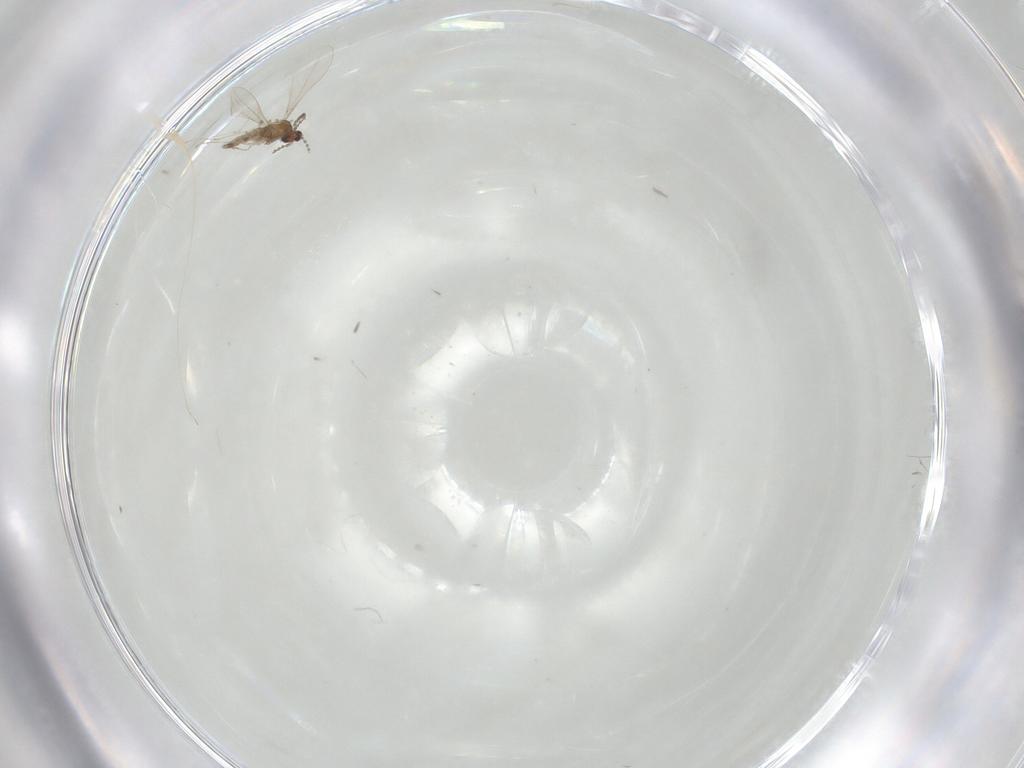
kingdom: Animalia
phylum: Arthropoda
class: Insecta
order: Diptera
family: Cecidomyiidae
